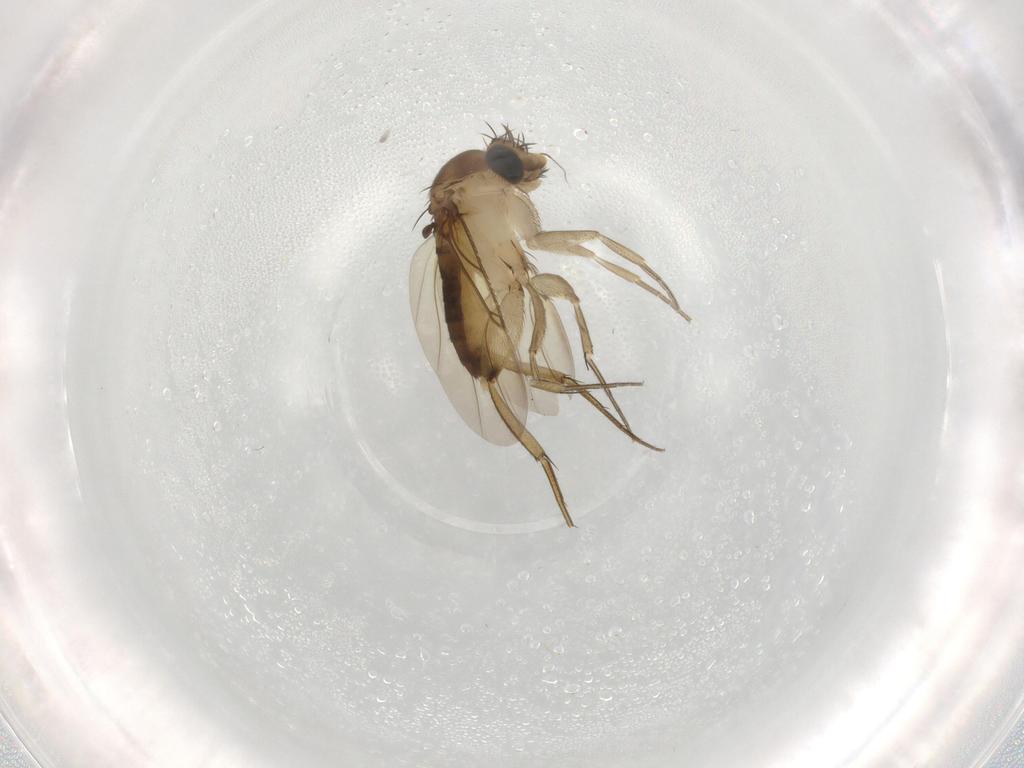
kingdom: Animalia
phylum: Arthropoda
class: Insecta
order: Diptera
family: Phoridae
